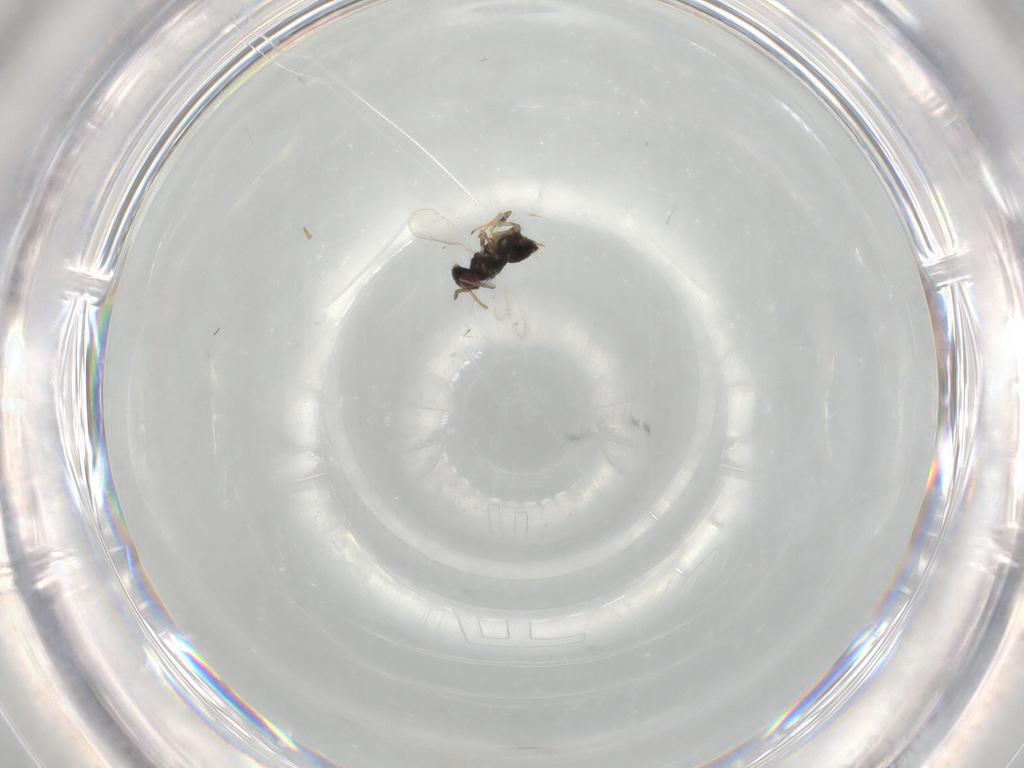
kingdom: Animalia
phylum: Arthropoda
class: Insecta
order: Hymenoptera
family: Aphelinidae
